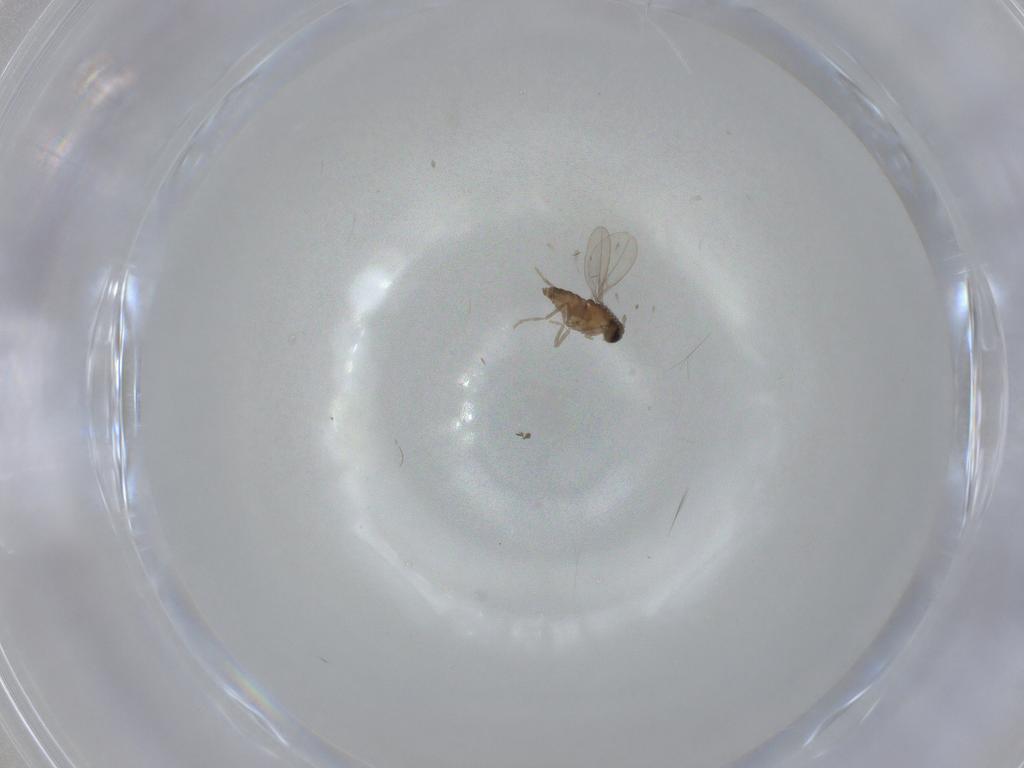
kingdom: Animalia
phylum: Arthropoda
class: Insecta
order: Diptera
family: Cecidomyiidae
